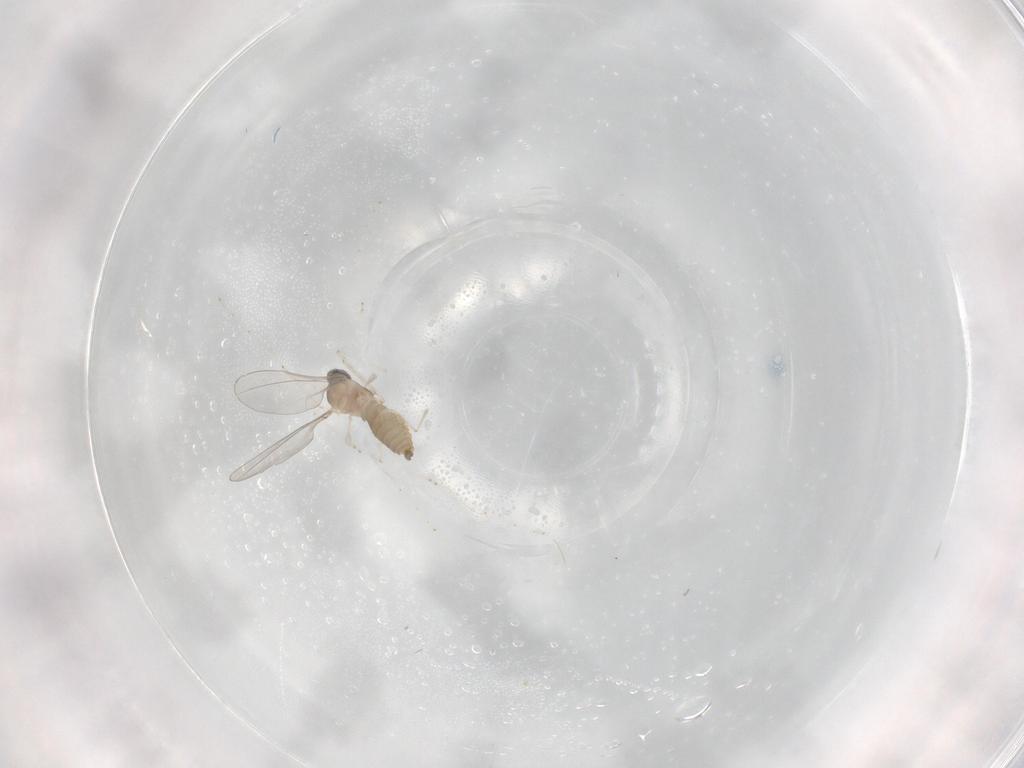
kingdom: Animalia
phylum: Arthropoda
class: Insecta
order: Diptera
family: Cecidomyiidae
